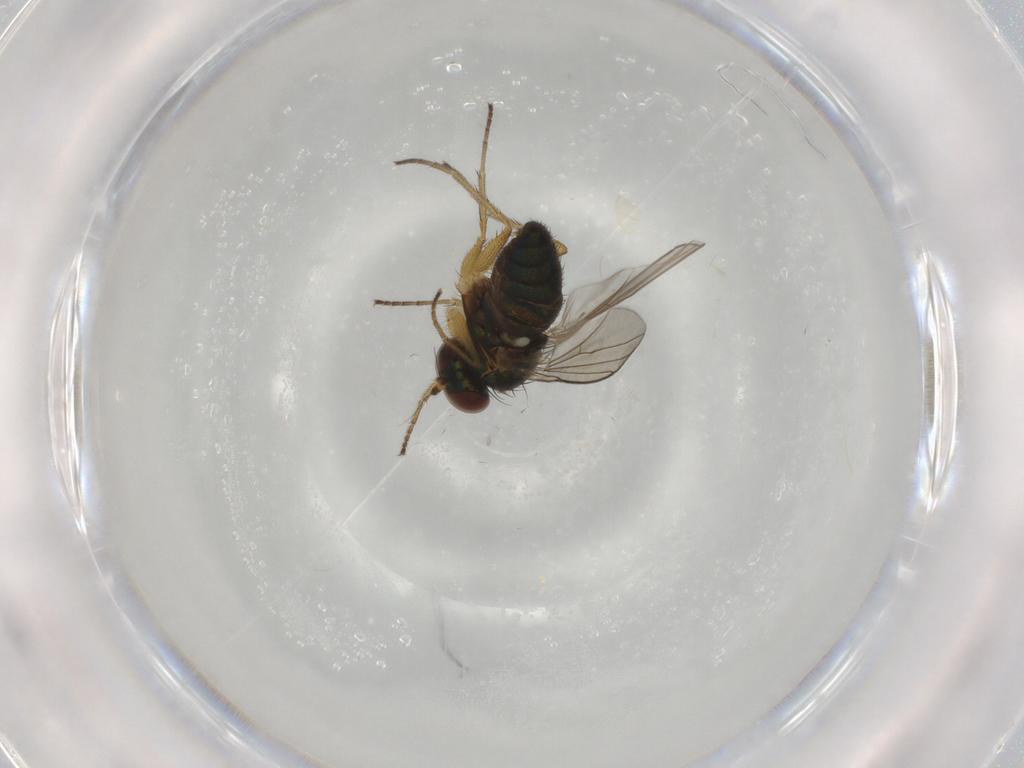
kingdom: Animalia
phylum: Arthropoda
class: Insecta
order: Diptera
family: Dolichopodidae
